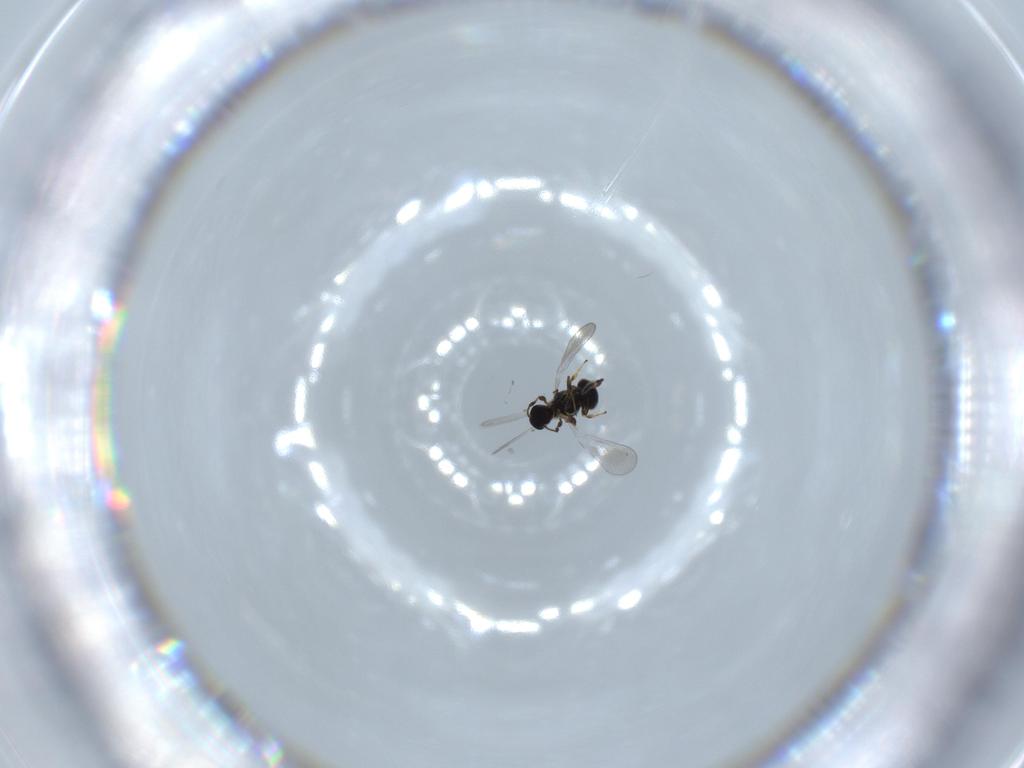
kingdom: Animalia
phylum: Arthropoda
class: Insecta
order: Hymenoptera
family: Platygastridae
